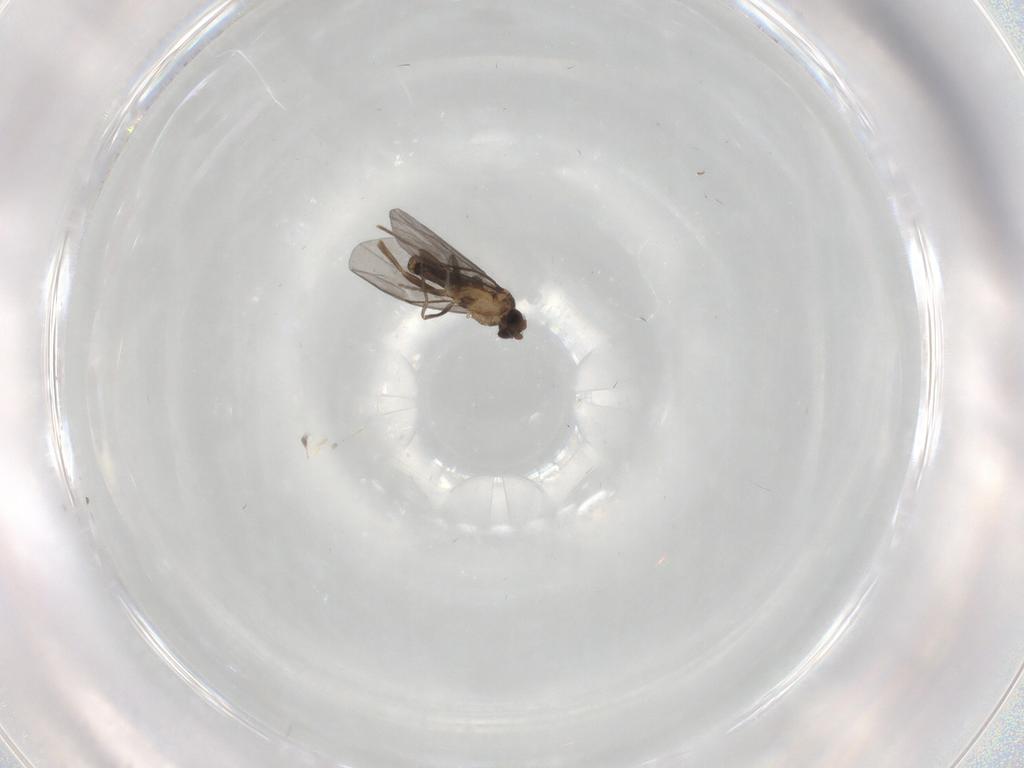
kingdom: Animalia
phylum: Arthropoda
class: Insecta
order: Diptera
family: Phoridae
